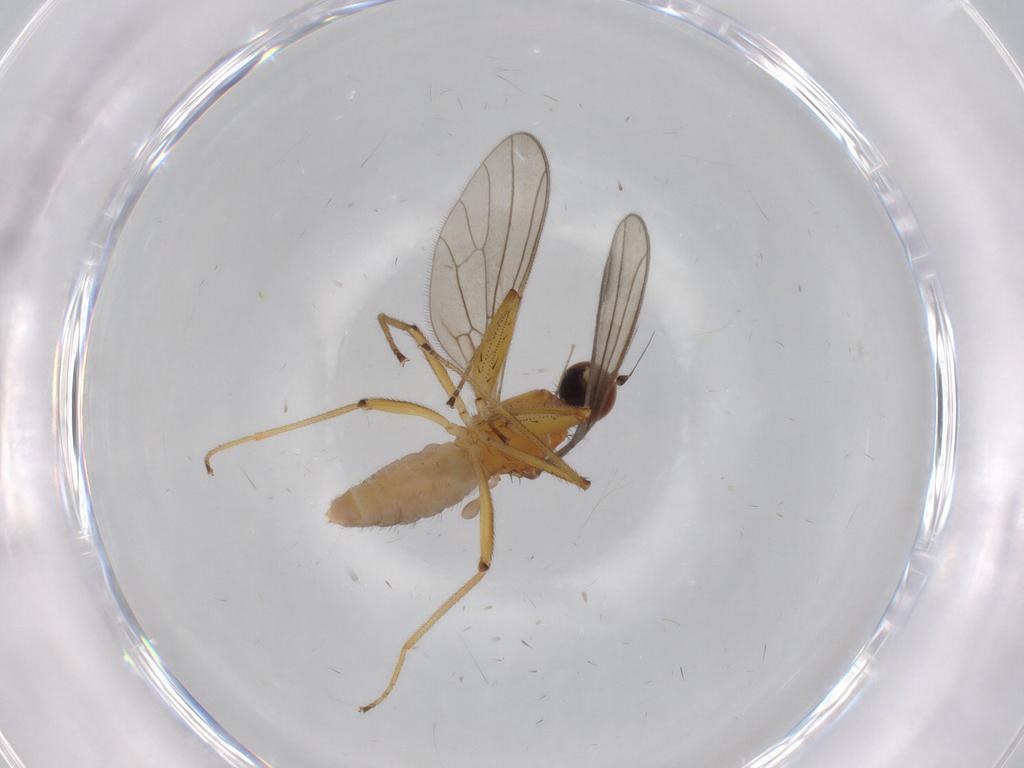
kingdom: Animalia
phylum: Arthropoda
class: Insecta
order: Diptera
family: Empididae
